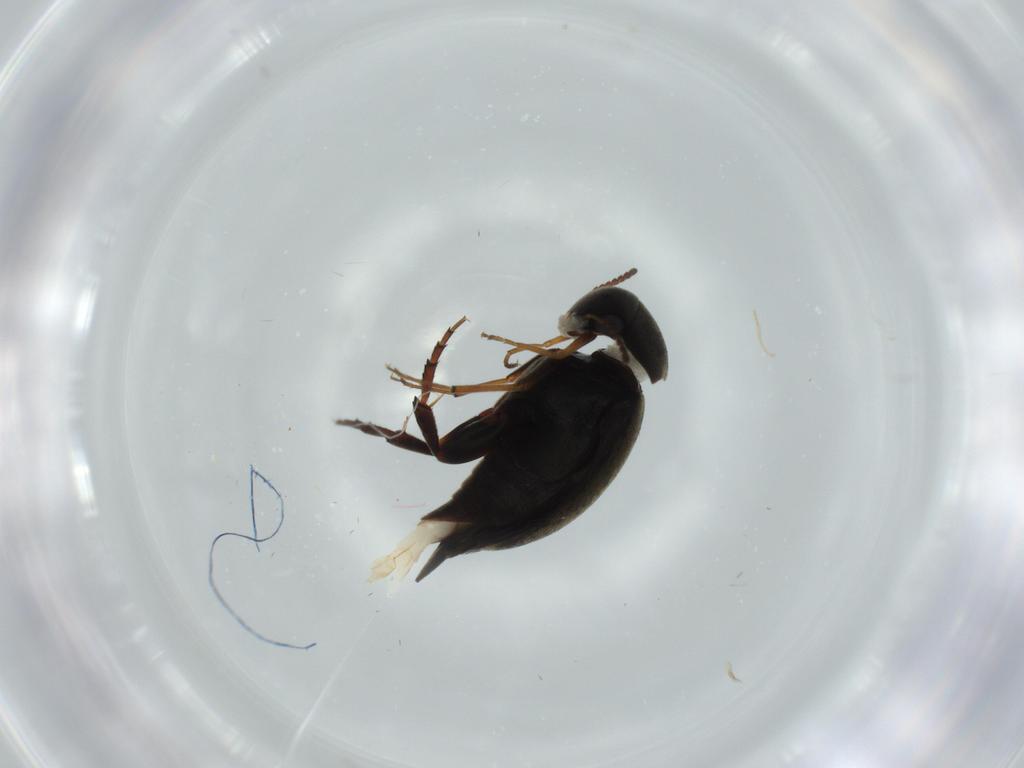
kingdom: Animalia
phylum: Arthropoda
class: Insecta
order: Coleoptera
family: Mordellidae
